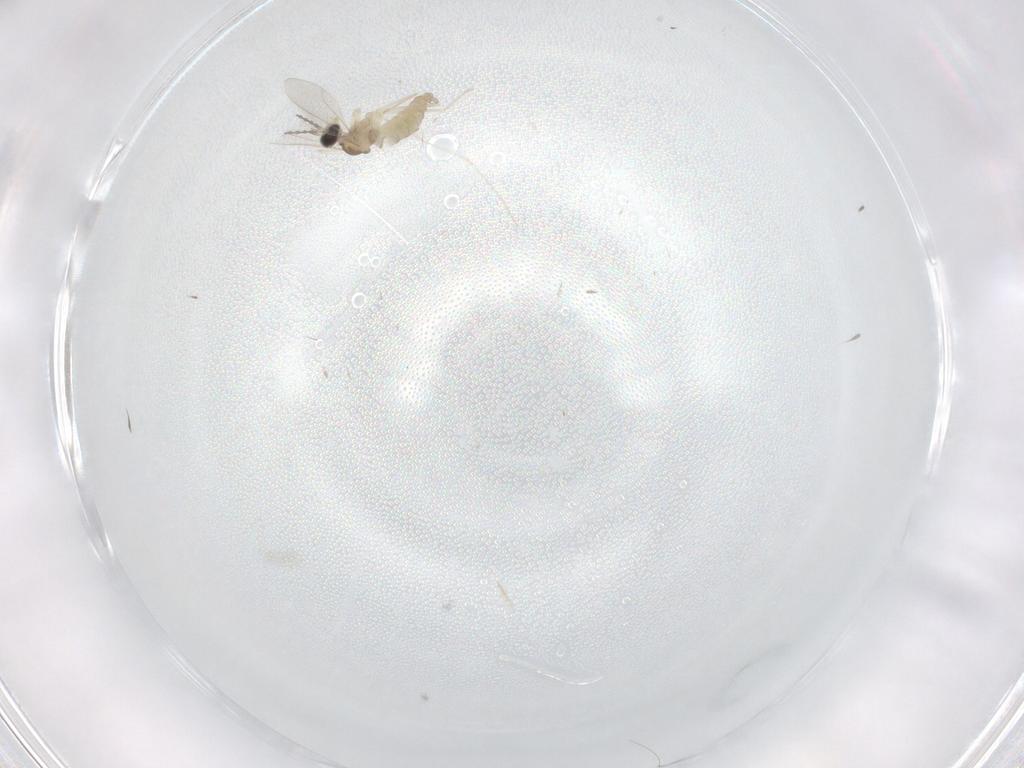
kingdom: Animalia
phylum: Arthropoda
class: Insecta
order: Diptera
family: Cecidomyiidae
